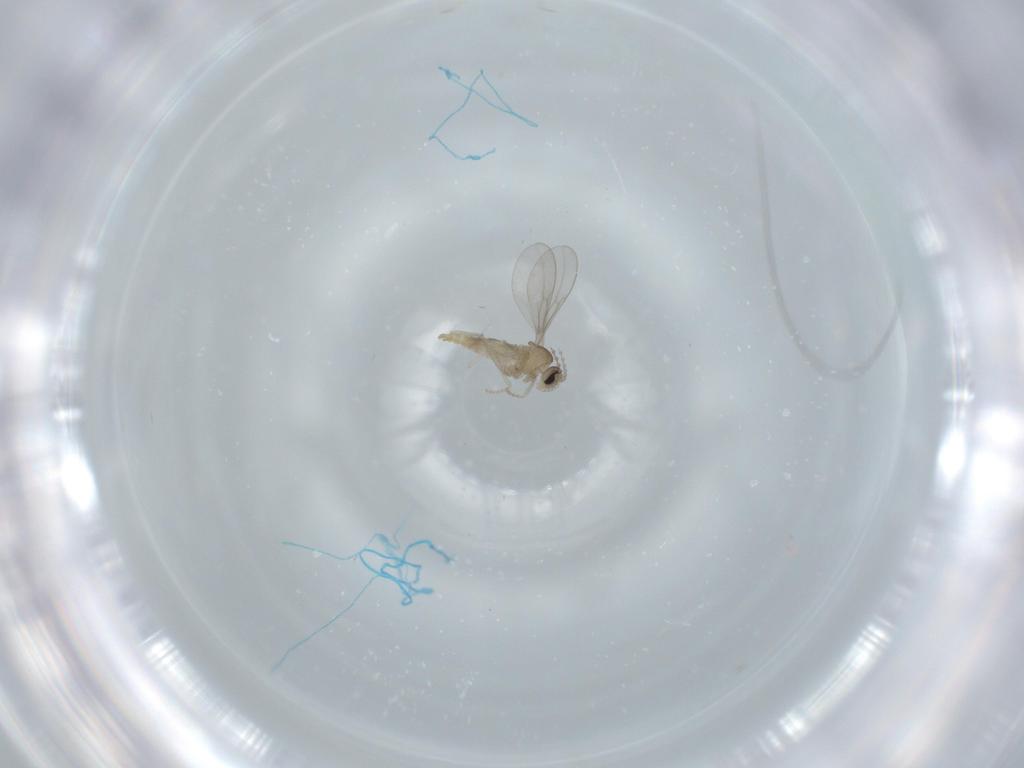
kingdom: Animalia
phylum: Arthropoda
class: Insecta
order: Diptera
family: Cecidomyiidae
